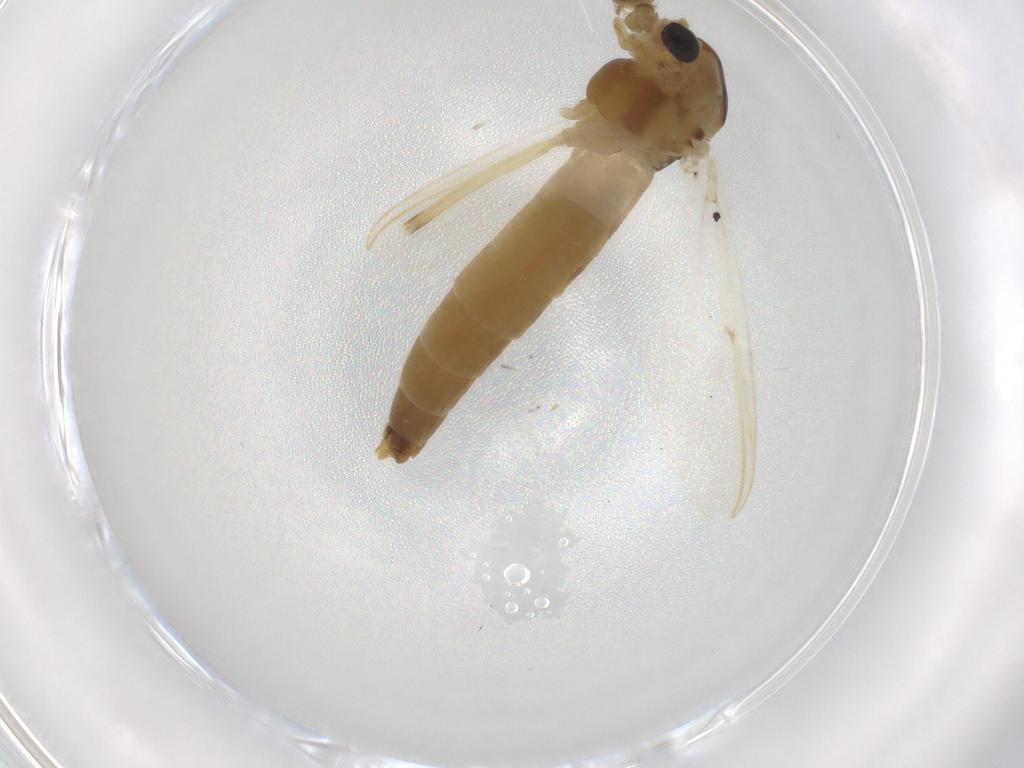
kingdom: Animalia
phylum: Arthropoda
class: Insecta
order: Diptera
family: Chironomidae
